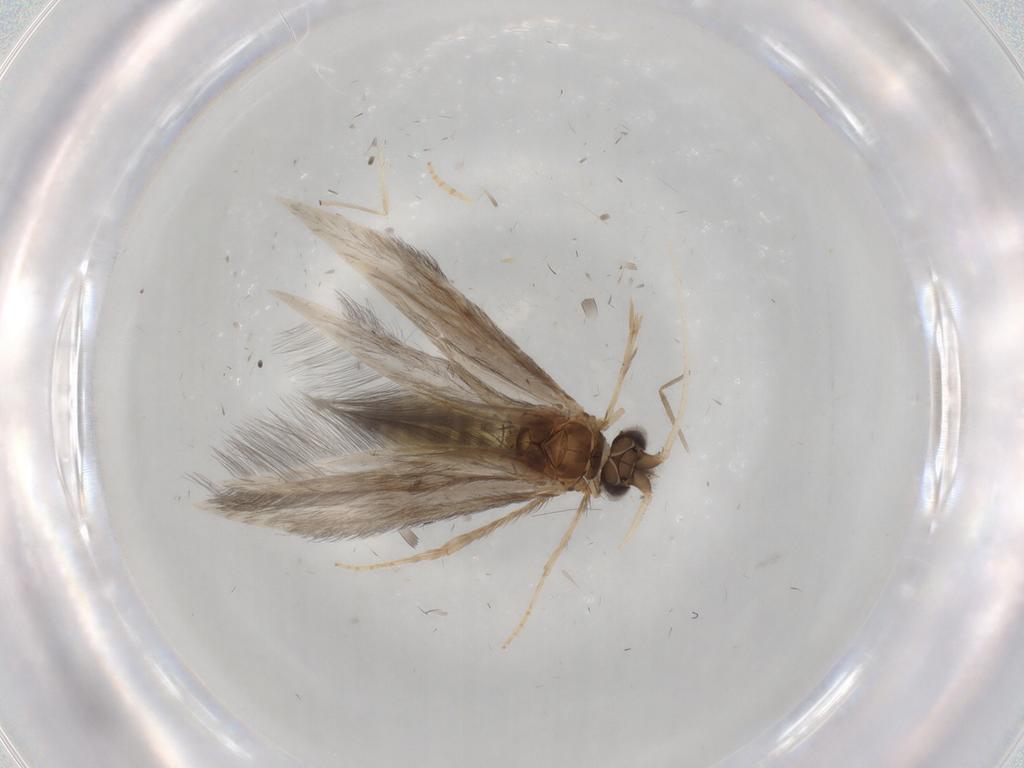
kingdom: Animalia
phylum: Arthropoda
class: Insecta
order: Trichoptera
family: Hydroptilidae
